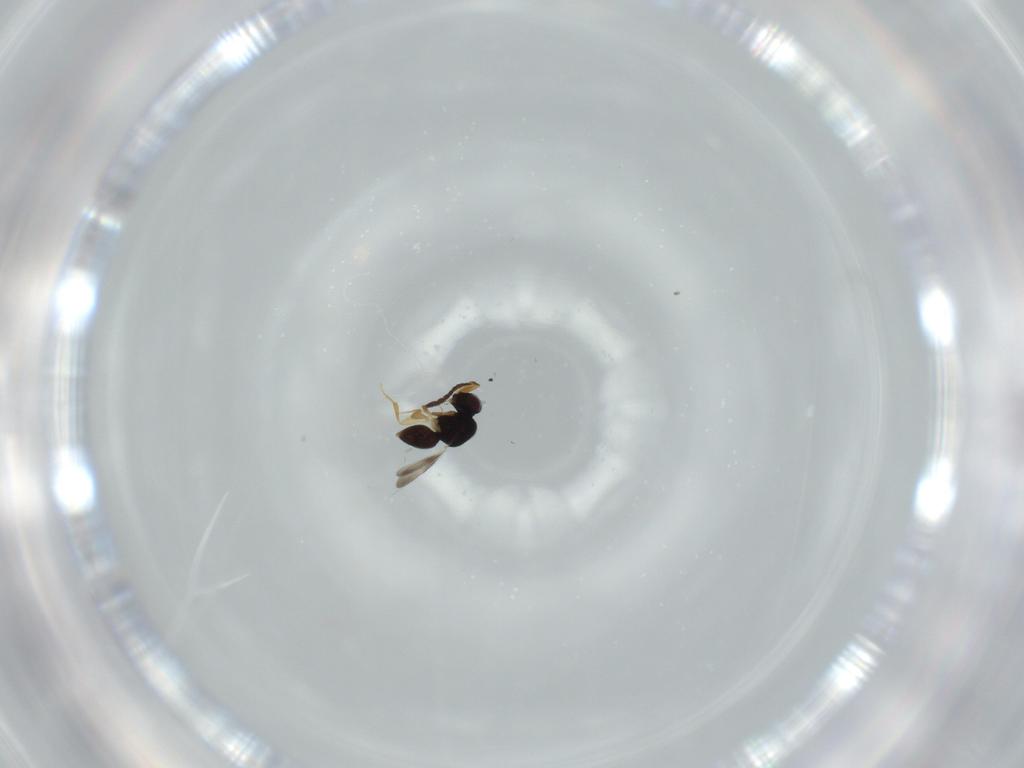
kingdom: Animalia
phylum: Arthropoda
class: Insecta
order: Hymenoptera
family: Ceraphronidae
